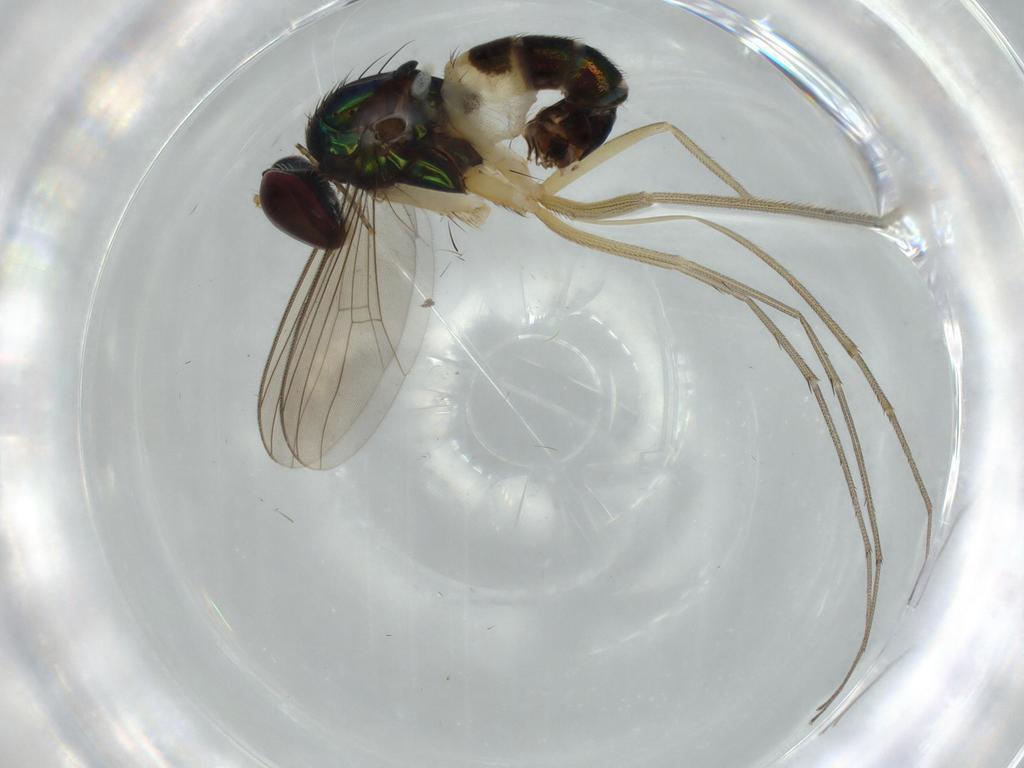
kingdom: Animalia
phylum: Arthropoda
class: Insecta
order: Diptera
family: Dolichopodidae
